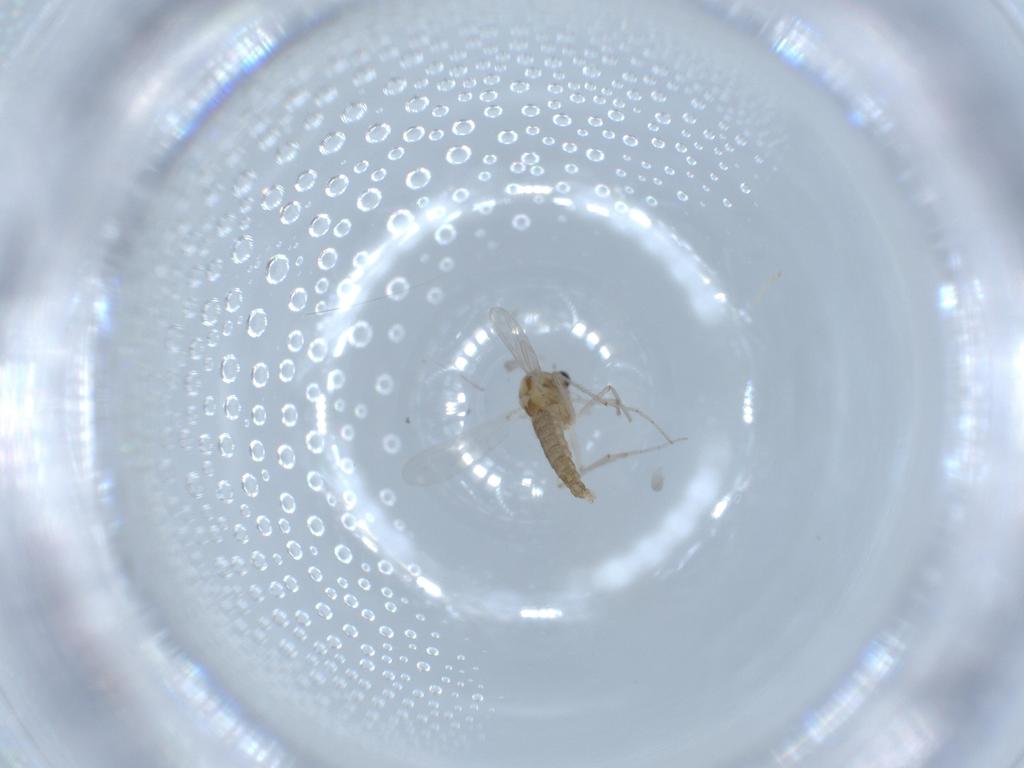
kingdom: Animalia
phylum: Arthropoda
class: Insecta
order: Diptera
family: Chironomidae
